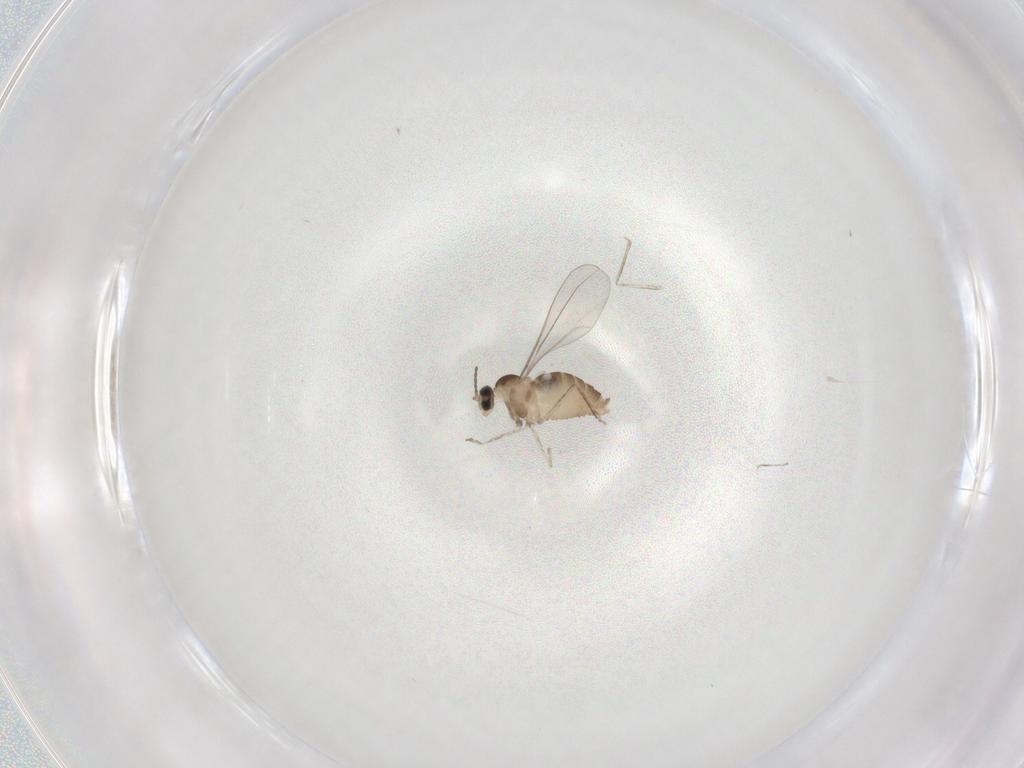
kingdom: Animalia
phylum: Arthropoda
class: Insecta
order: Diptera
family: Cecidomyiidae
